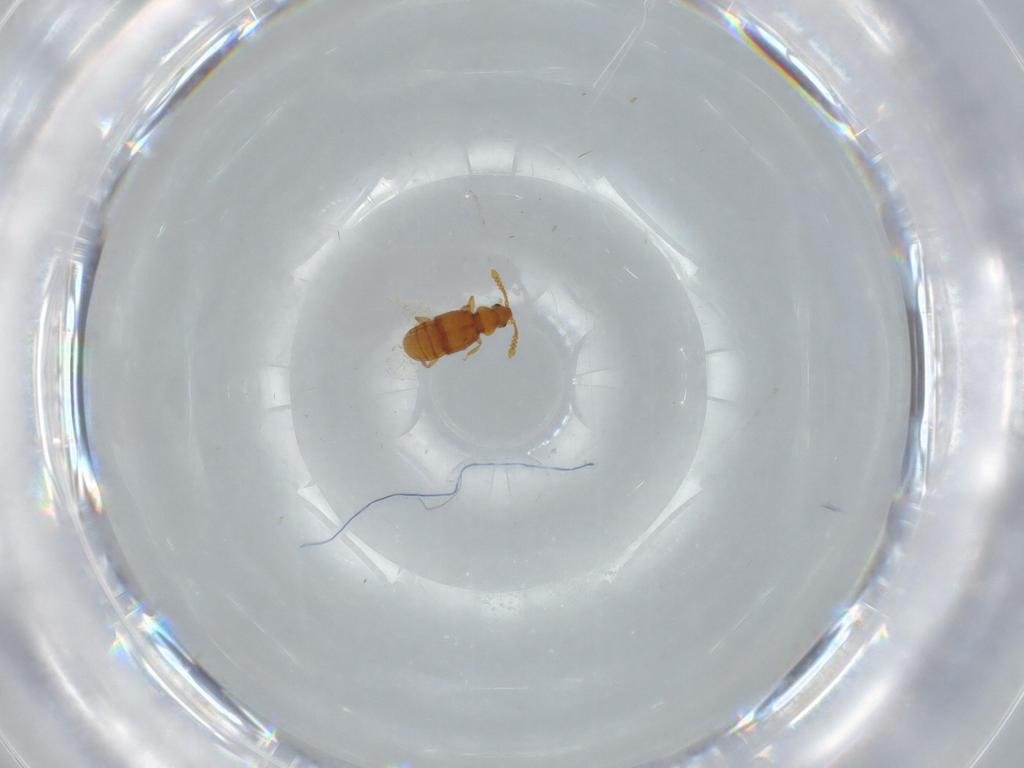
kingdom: Animalia
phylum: Arthropoda
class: Insecta
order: Coleoptera
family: Staphylinidae
